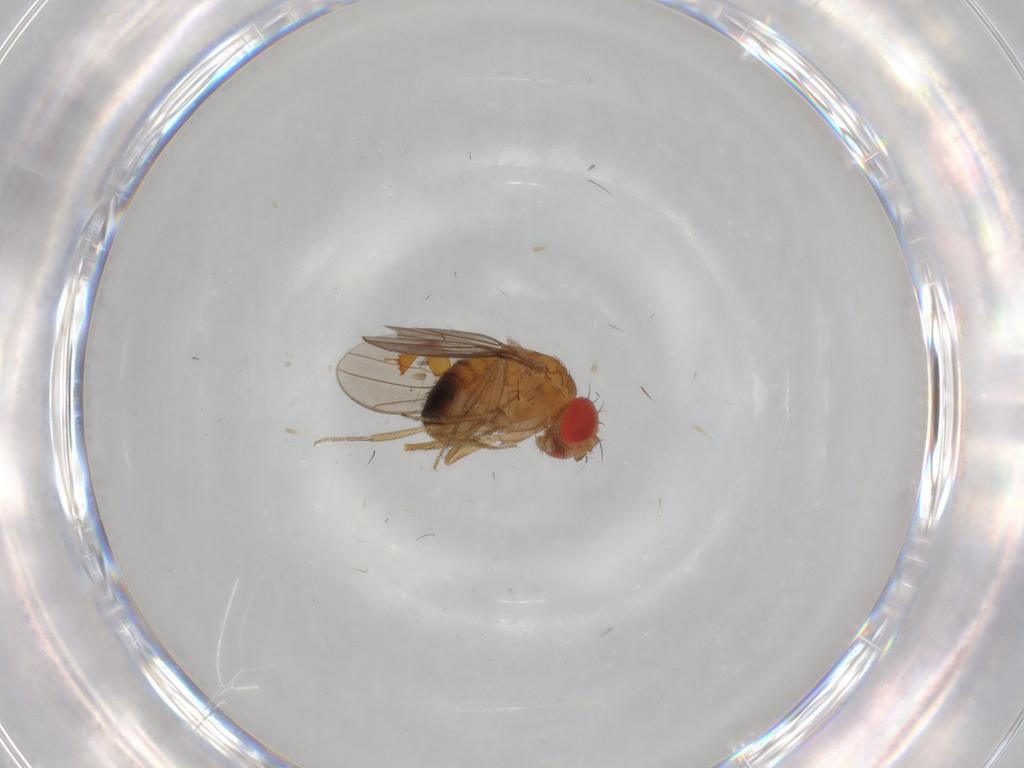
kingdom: Animalia
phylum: Arthropoda
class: Insecta
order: Diptera
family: Drosophilidae
